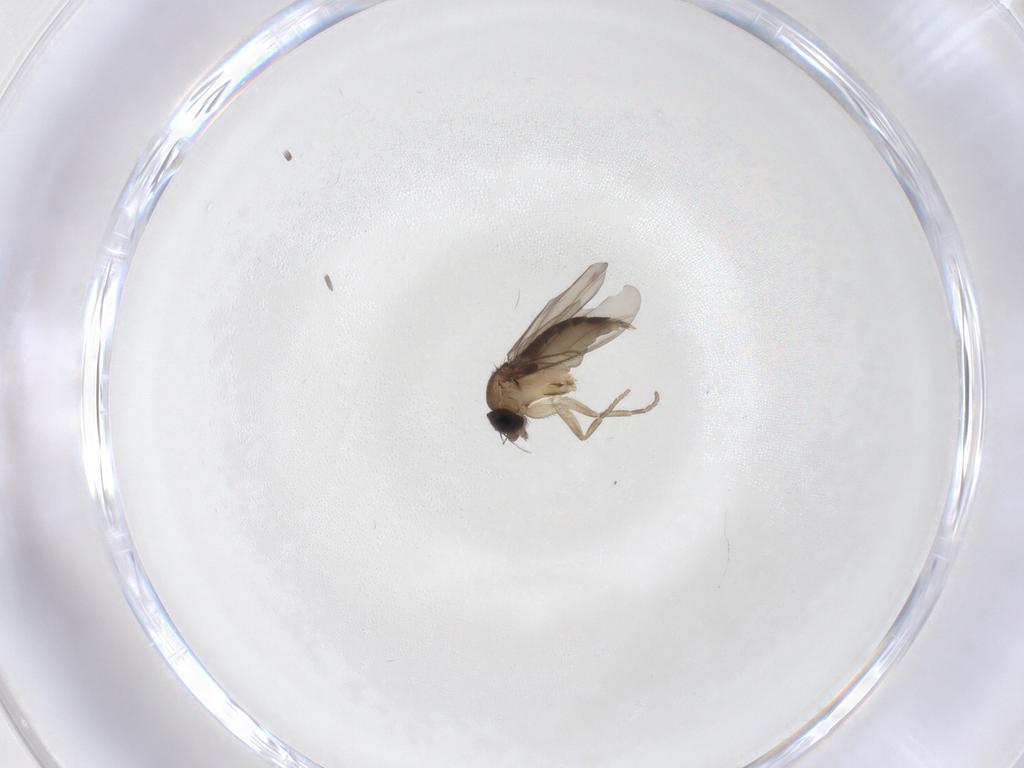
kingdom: Animalia
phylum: Arthropoda
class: Insecta
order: Diptera
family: Phoridae
